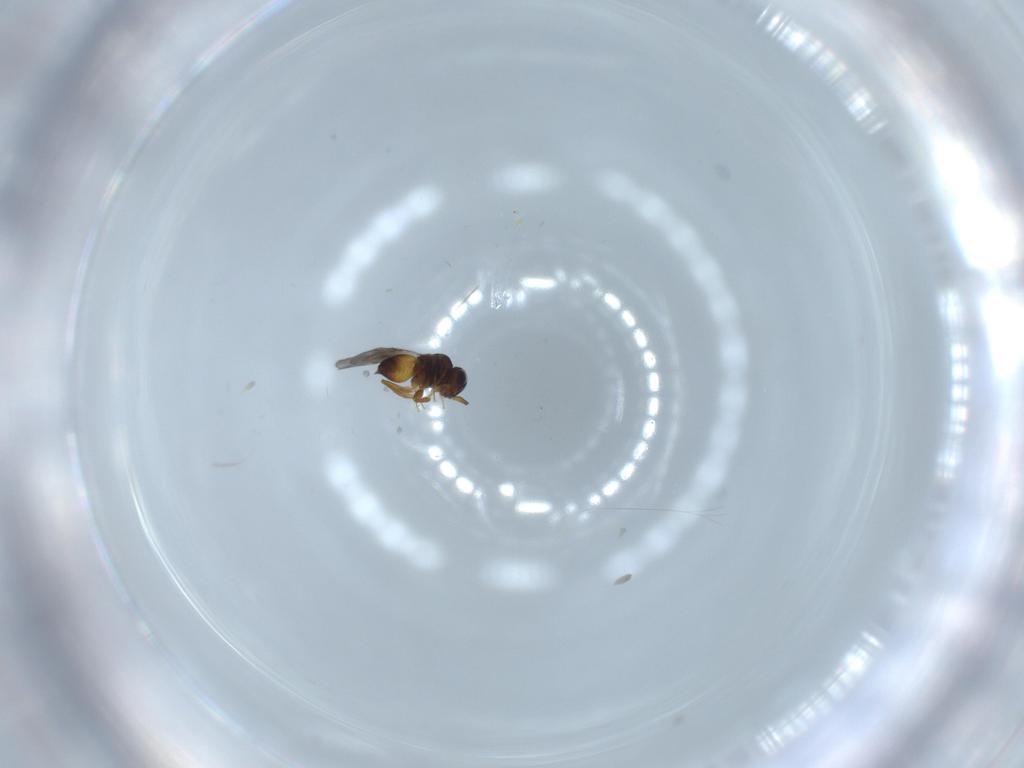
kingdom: Animalia
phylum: Arthropoda
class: Insecta
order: Hymenoptera
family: Ceraphronidae
